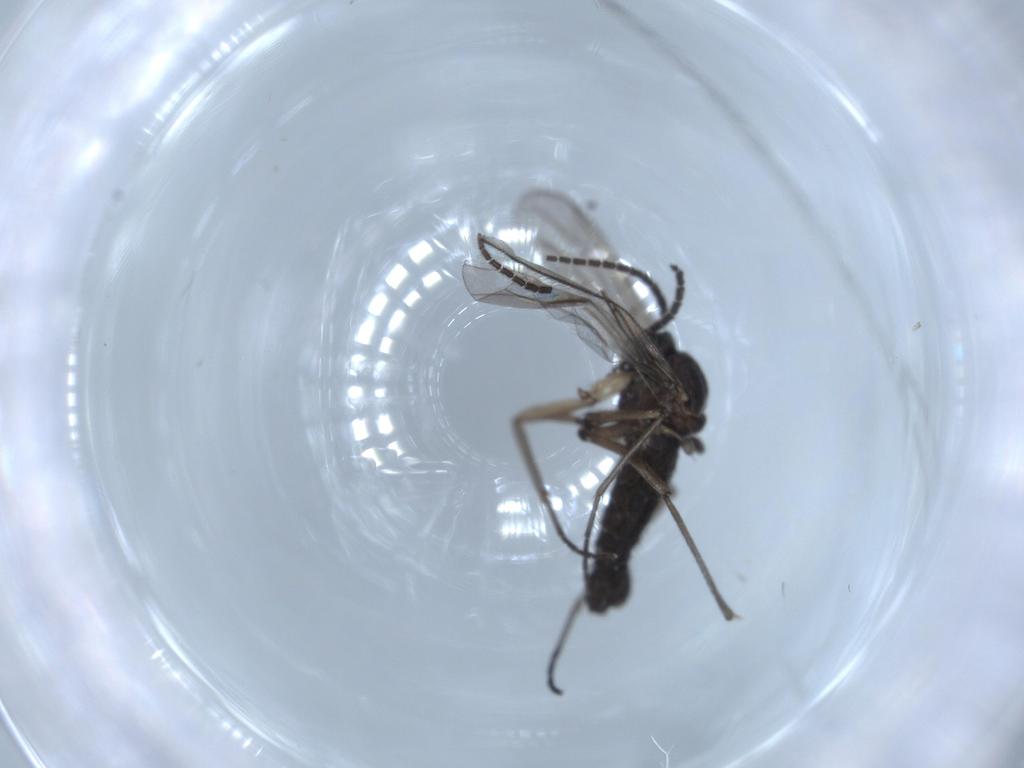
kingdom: Animalia
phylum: Arthropoda
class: Insecta
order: Diptera
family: Sciaridae
